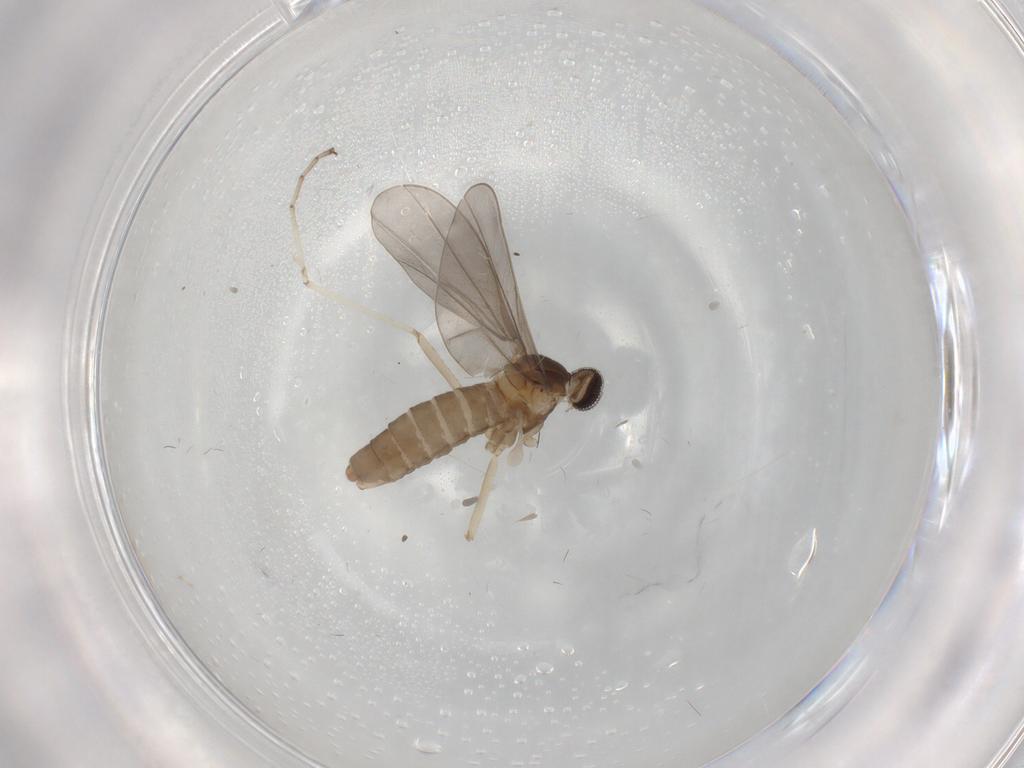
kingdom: Animalia
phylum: Arthropoda
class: Insecta
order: Diptera
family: Cecidomyiidae
